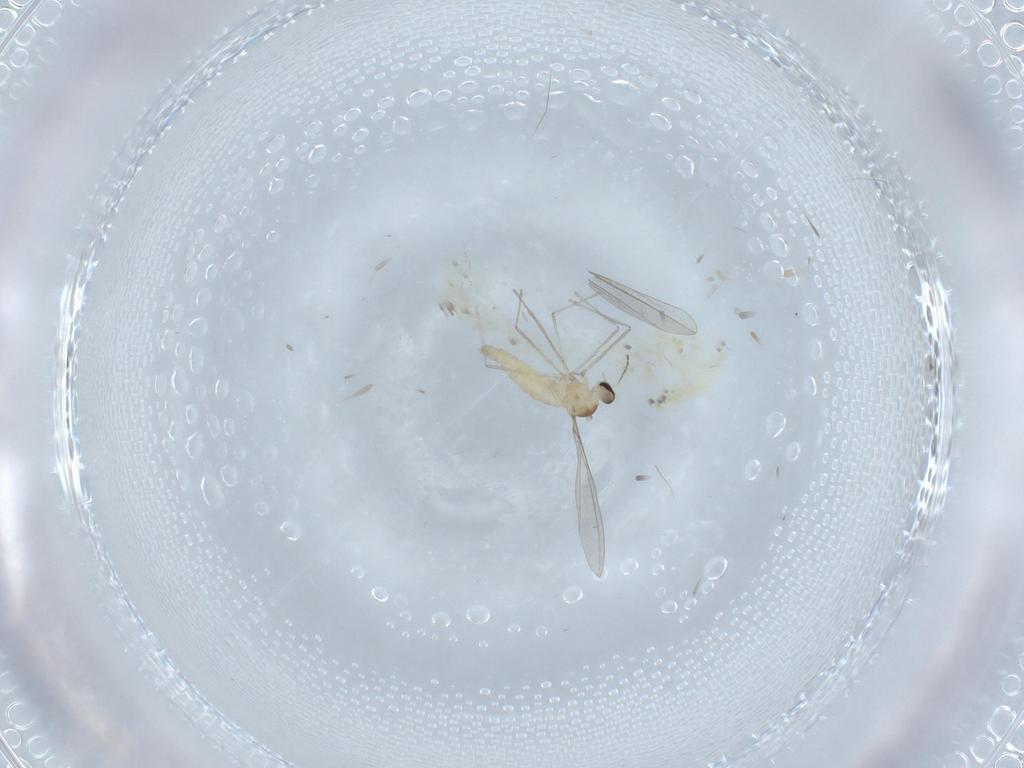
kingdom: Animalia
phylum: Arthropoda
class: Insecta
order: Diptera
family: Cecidomyiidae
